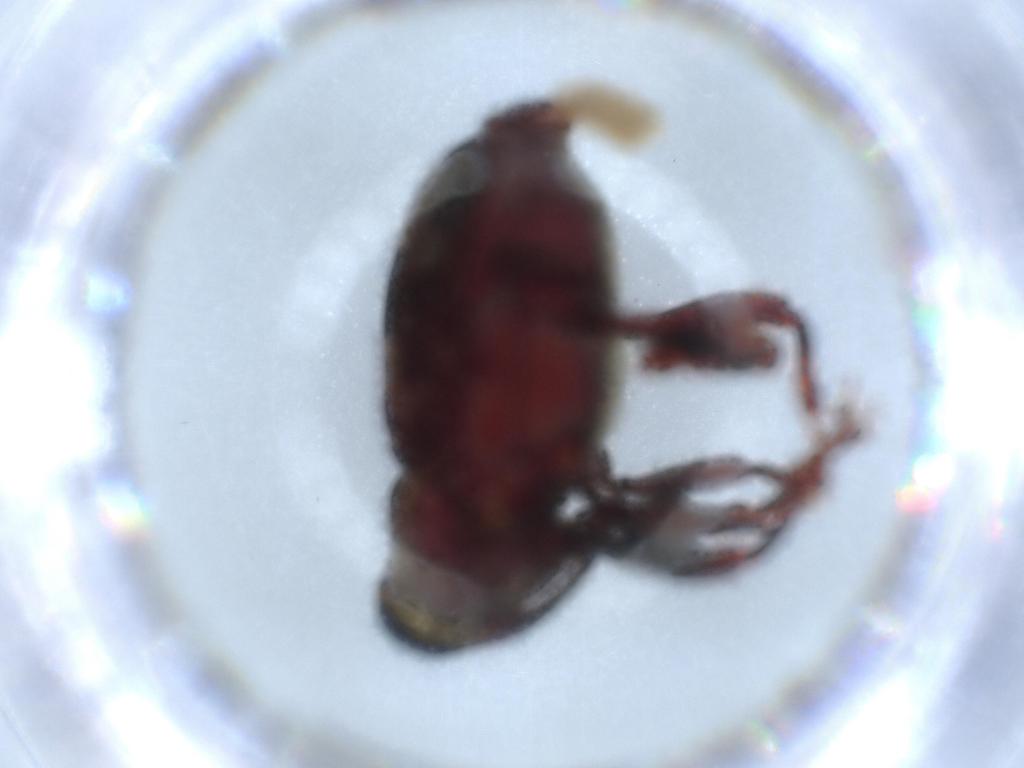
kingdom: Animalia
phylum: Arthropoda
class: Insecta
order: Coleoptera
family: Curculionidae
